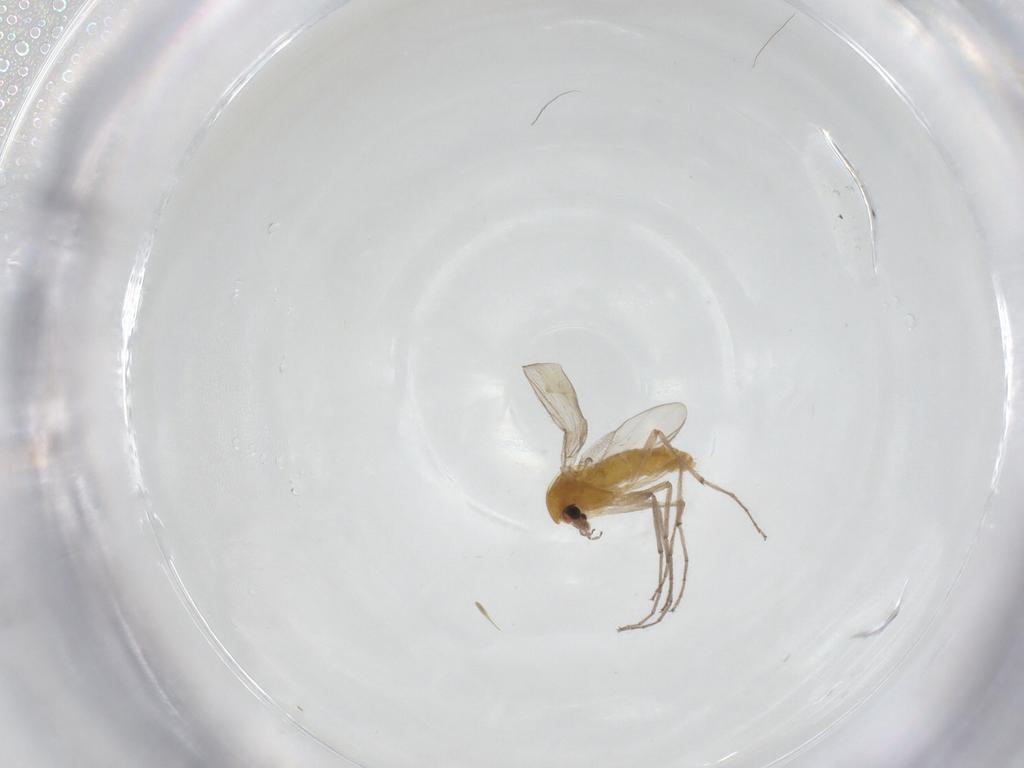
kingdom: Animalia
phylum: Arthropoda
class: Insecta
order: Diptera
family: Chironomidae
